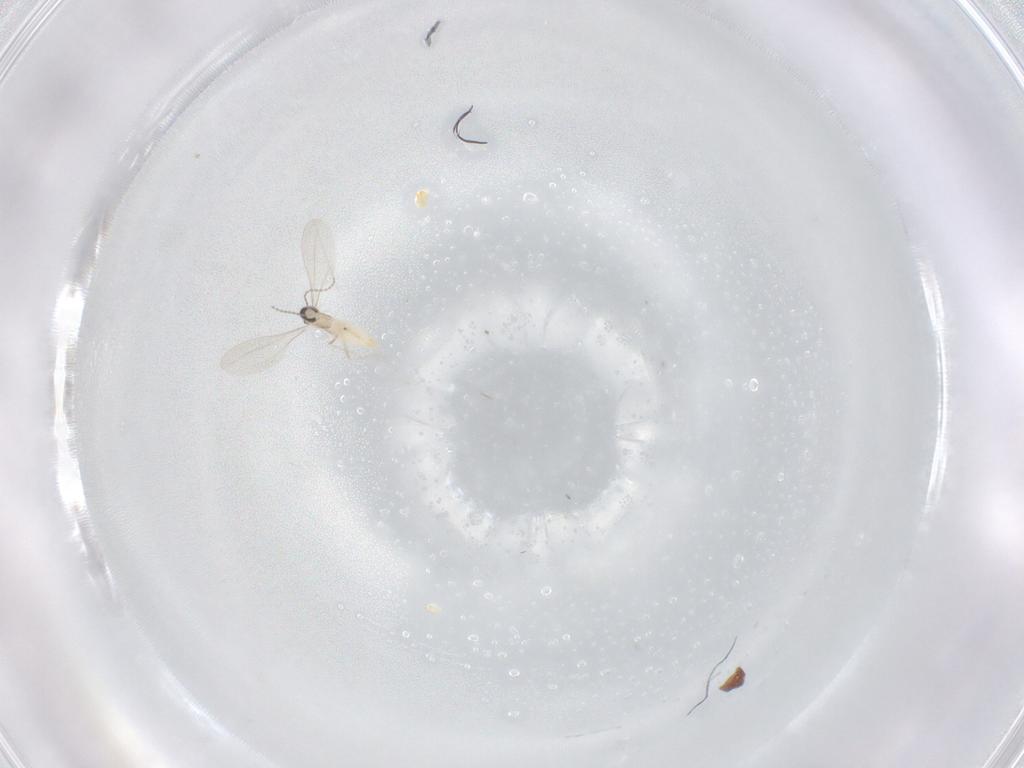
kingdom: Animalia
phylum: Arthropoda
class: Insecta
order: Diptera
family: Cecidomyiidae
